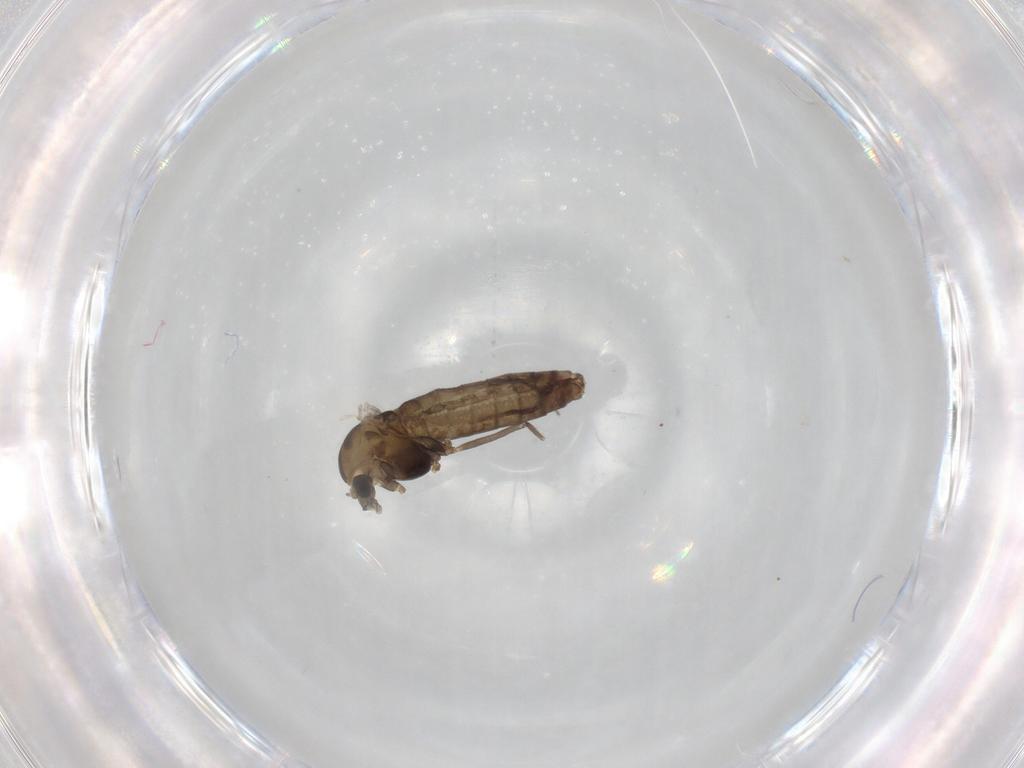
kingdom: Animalia
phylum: Arthropoda
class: Insecta
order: Diptera
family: Chironomidae
